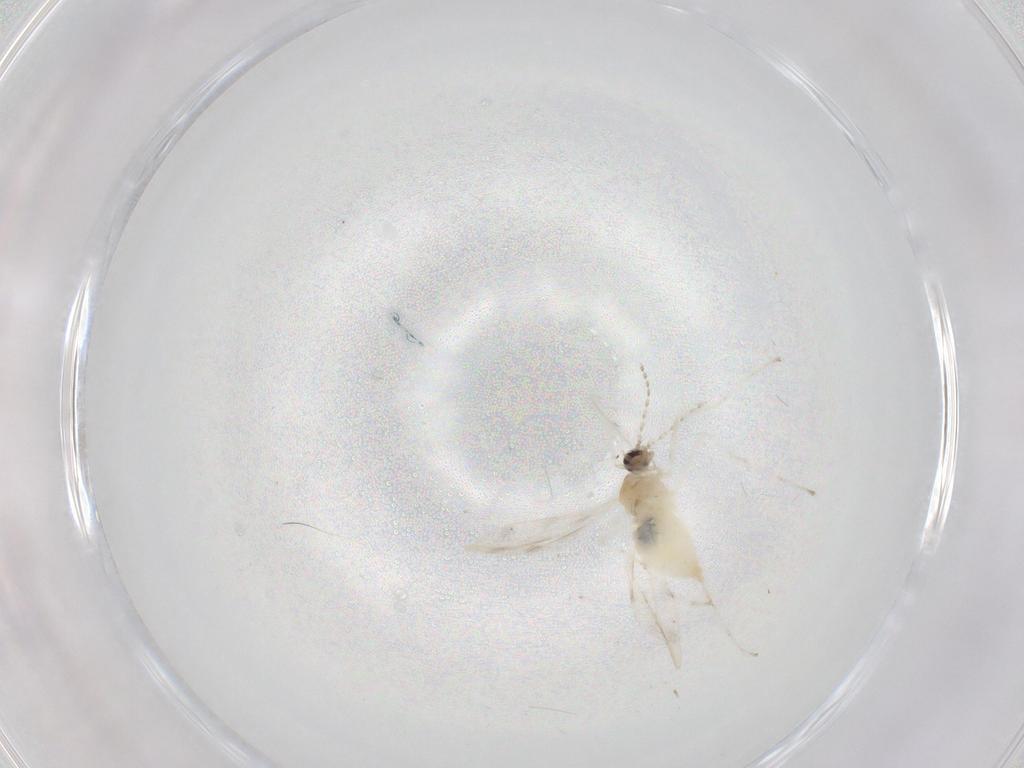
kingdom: Animalia
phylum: Arthropoda
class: Insecta
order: Diptera
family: Cecidomyiidae
